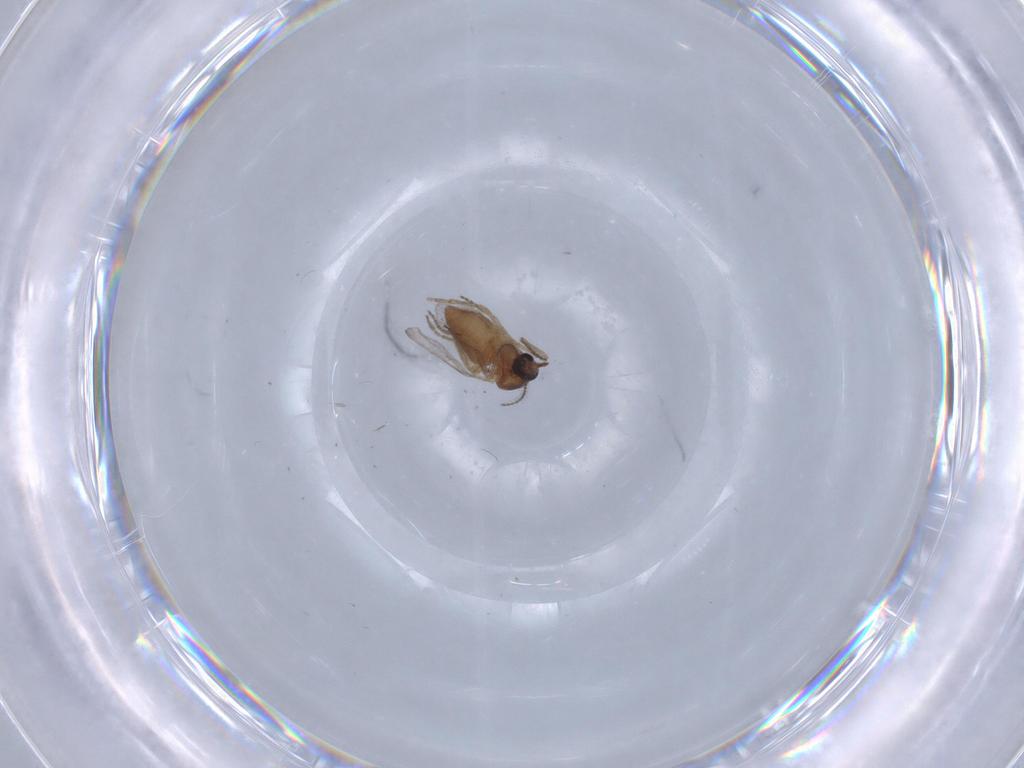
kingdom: Animalia
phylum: Arthropoda
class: Insecta
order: Diptera
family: Ceratopogonidae
